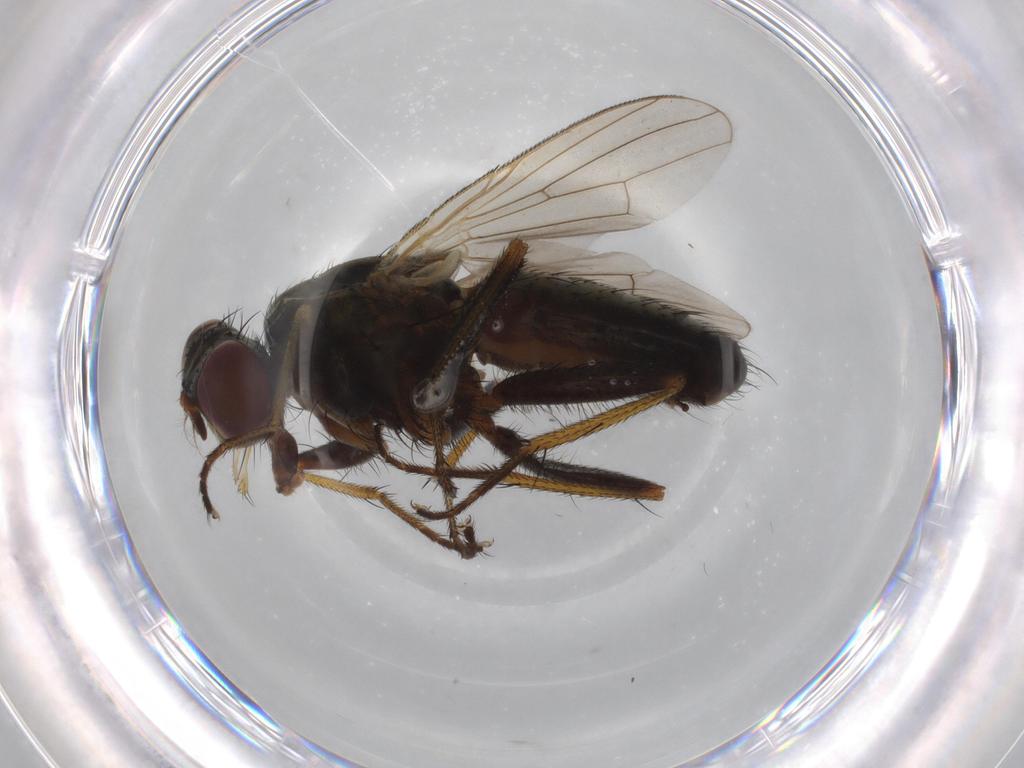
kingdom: Animalia
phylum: Arthropoda
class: Insecta
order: Diptera
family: Muscidae
